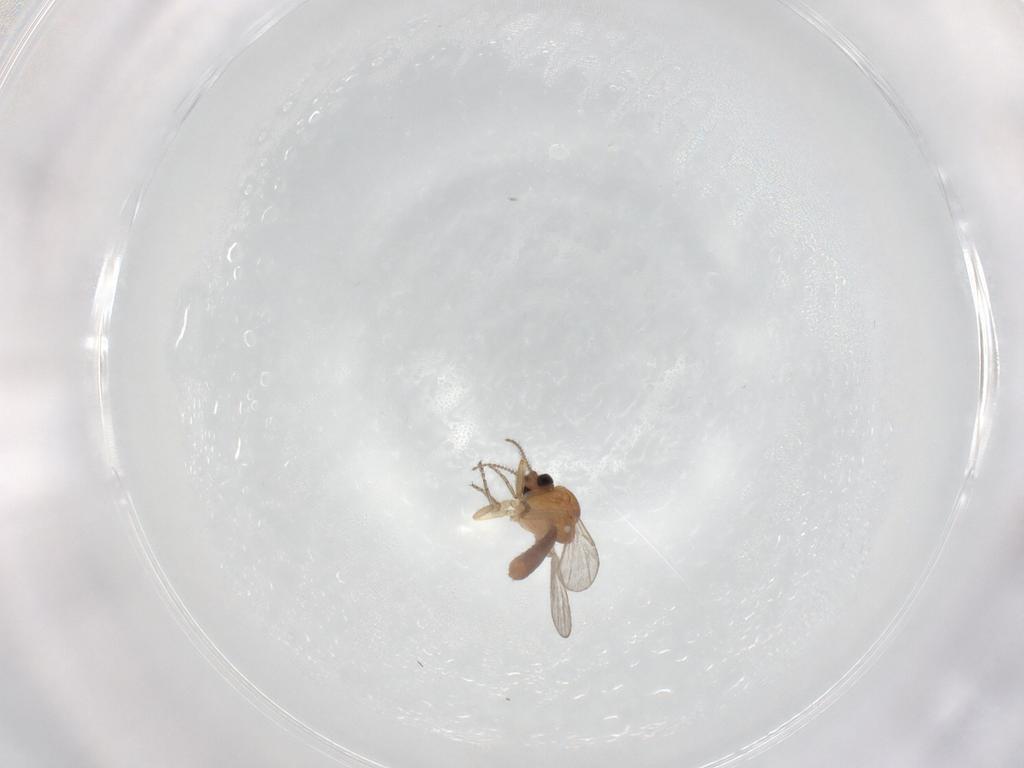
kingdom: Animalia
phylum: Arthropoda
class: Insecta
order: Diptera
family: Ceratopogonidae
